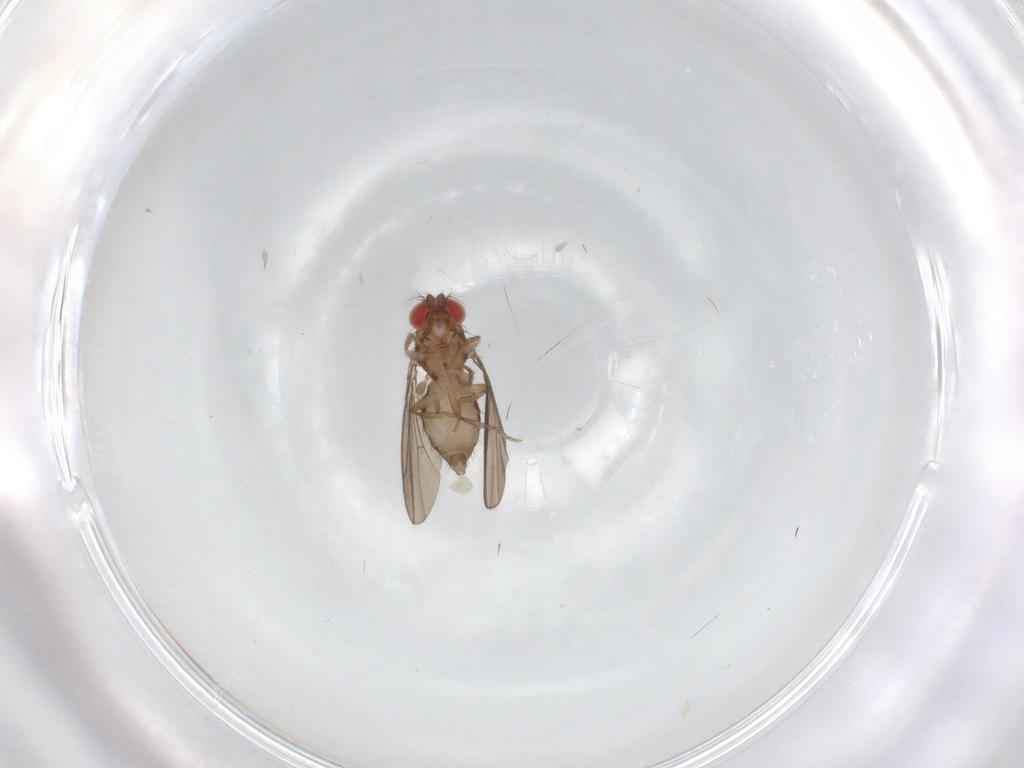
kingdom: Animalia
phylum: Arthropoda
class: Insecta
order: Diptera
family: Drosophilidae
